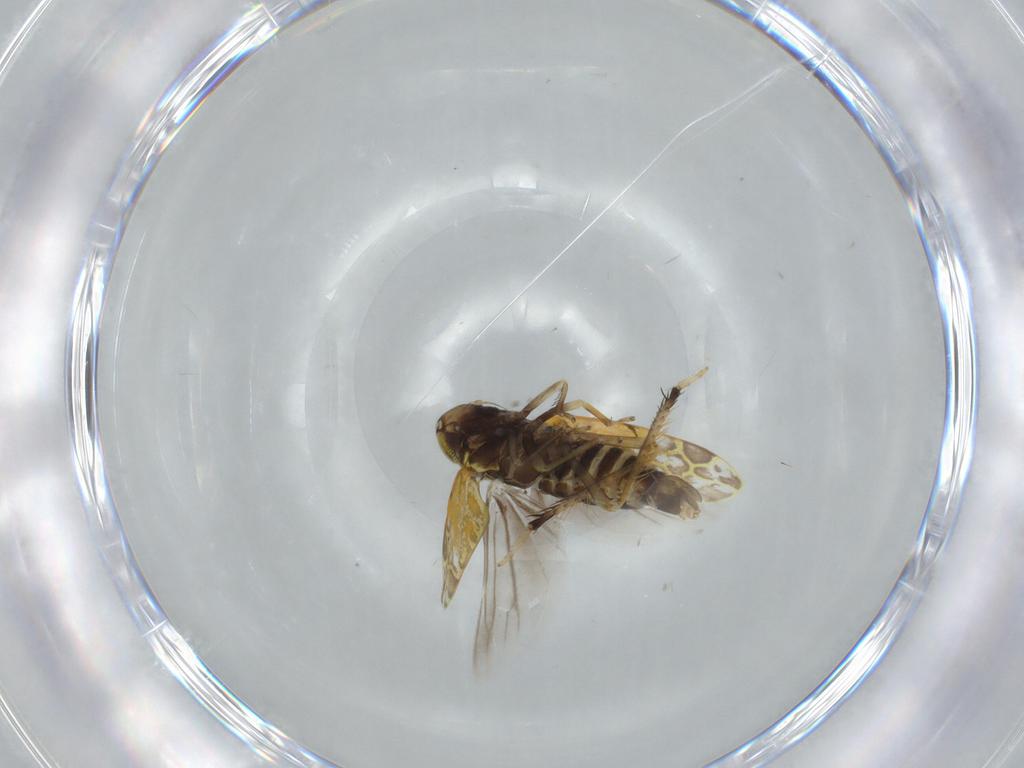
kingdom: Animalia
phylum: Arthropoda
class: Insecta
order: Hemiptera
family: Cicadellidae
